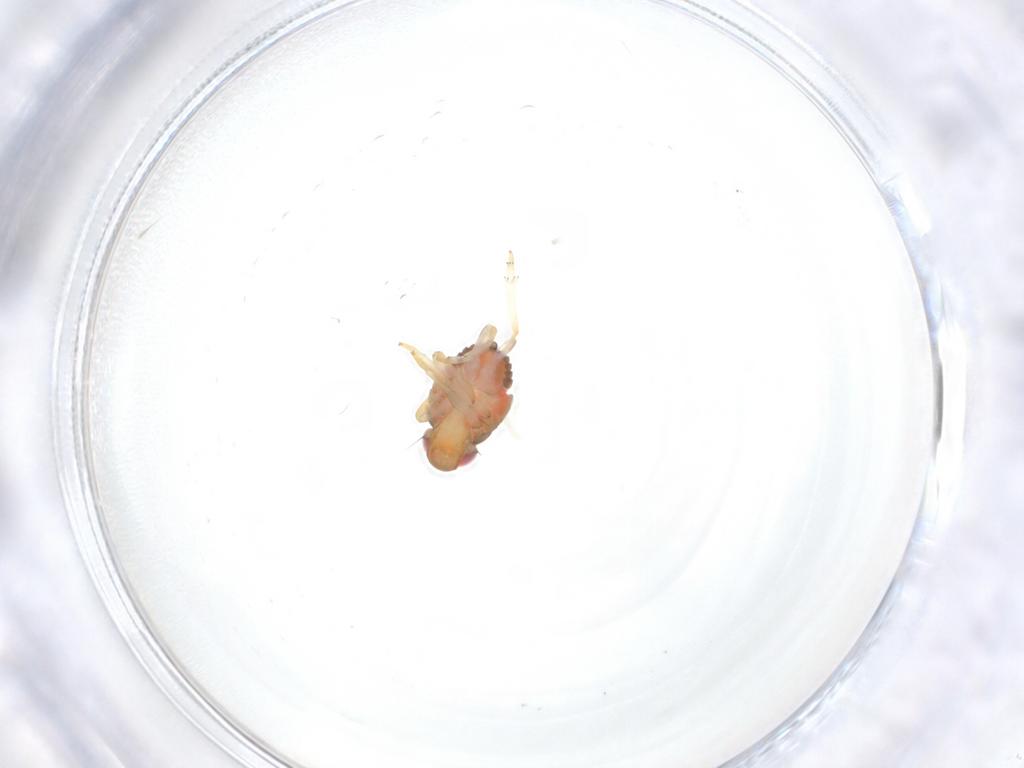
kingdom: Animalia
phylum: Arthropoda
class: Insecta
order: Hemiptera
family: Issidae
